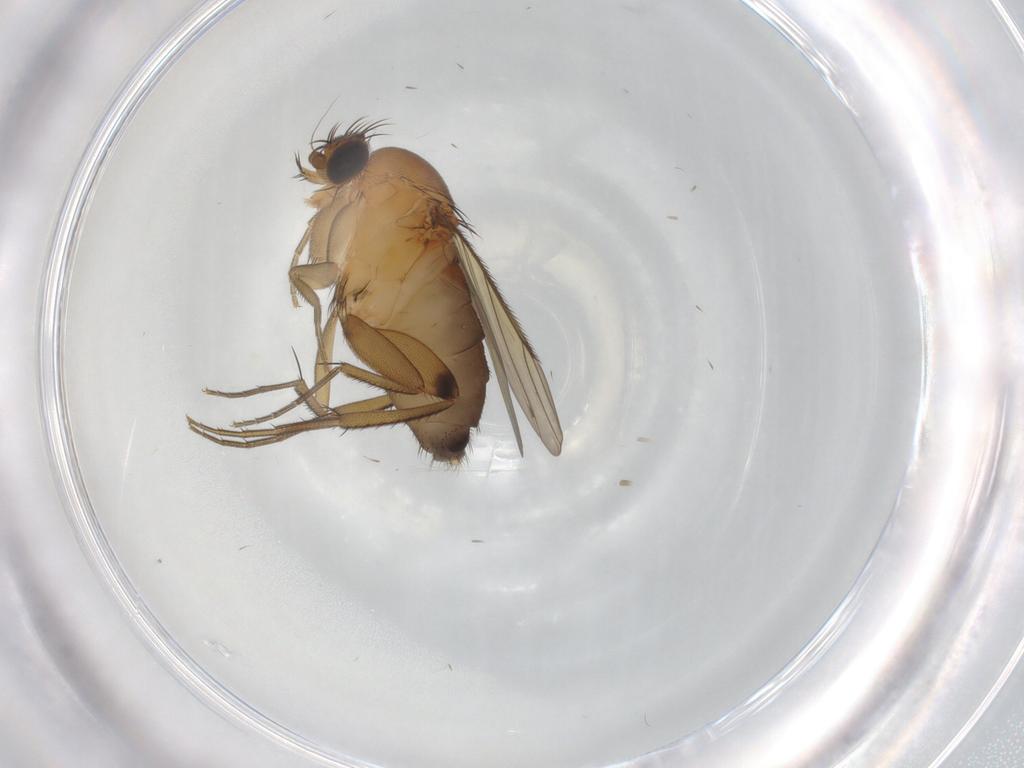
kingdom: Animalia
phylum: Arthropoda
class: Insecta
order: Diptera
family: Phoridae
